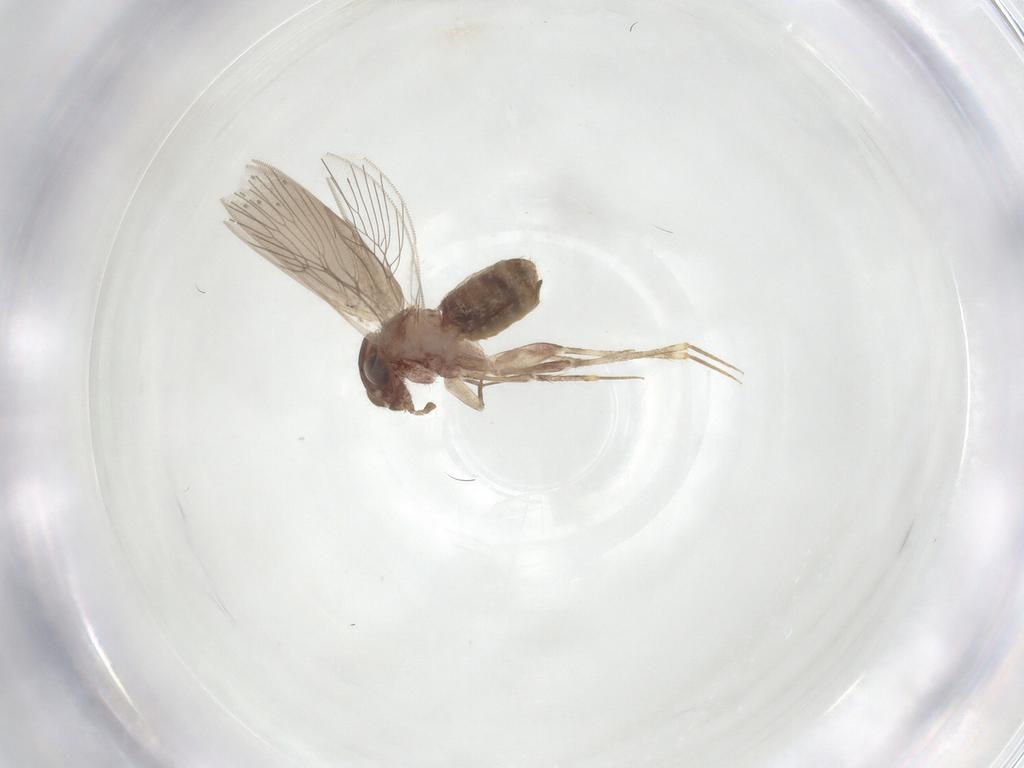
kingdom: Animalia
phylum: Arthropoda
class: Insecta
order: Psocodea
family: Lepidopsocidae
